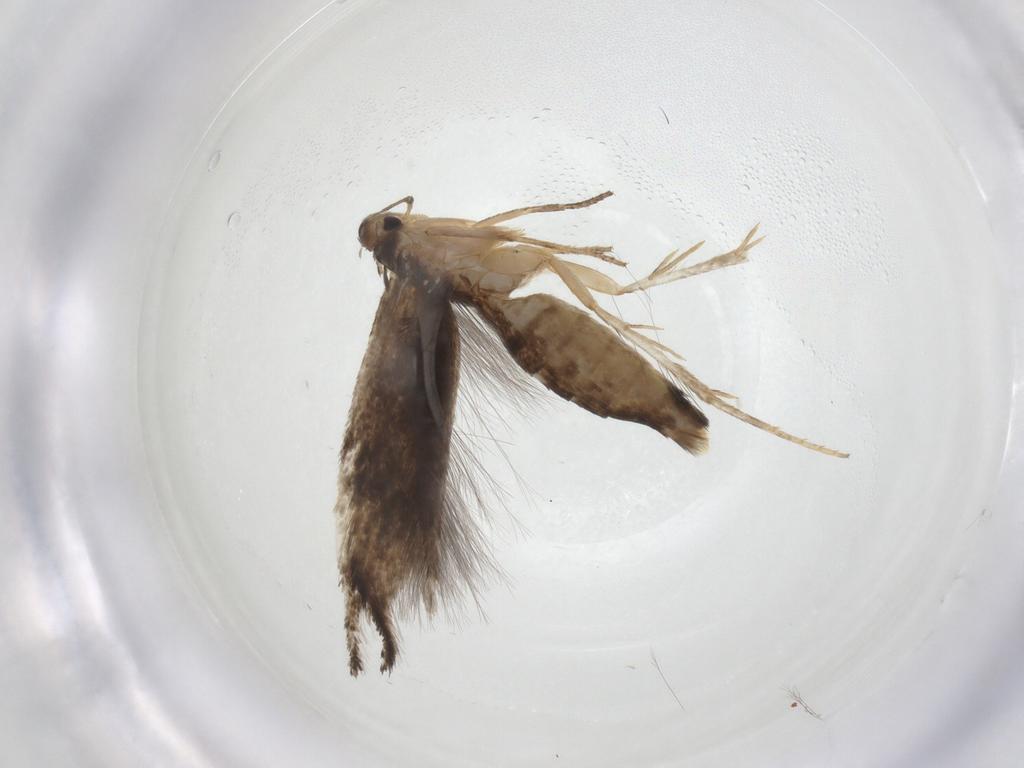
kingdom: Animalia
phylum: Arthropoda
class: Insecta
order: Lepidoptera
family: Elachistidae
